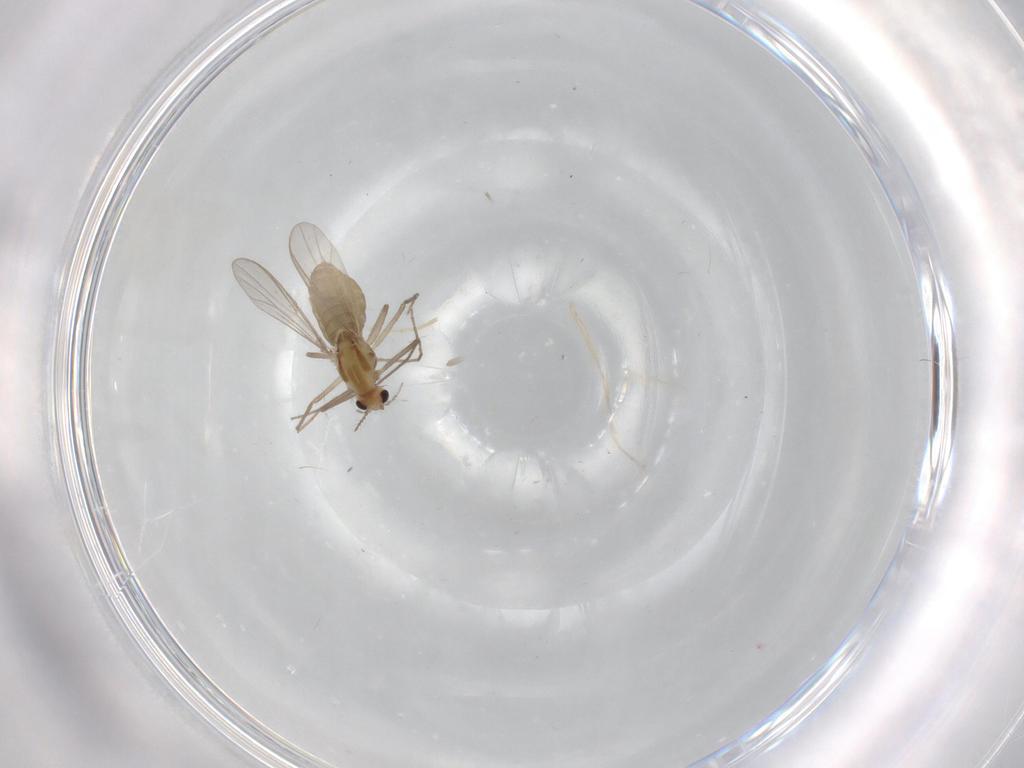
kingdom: Animalia
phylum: Arthropoda
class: Insecta
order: Diptera
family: Chironomidae
